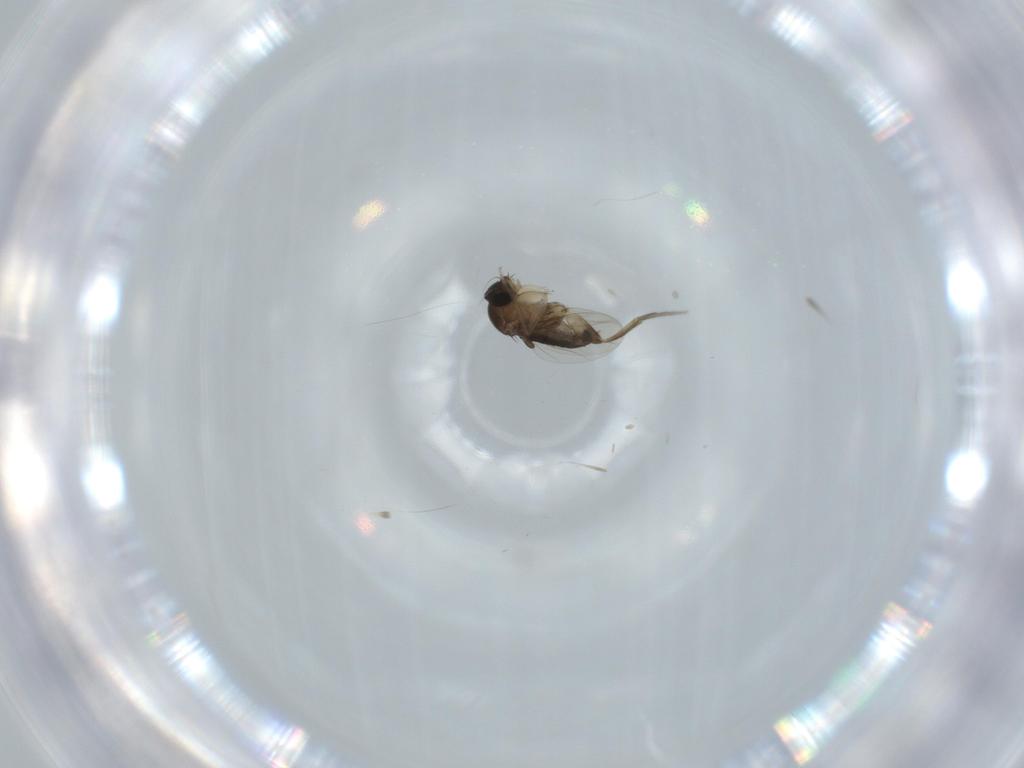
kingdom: Animalia
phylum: Arthropoda
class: Insecta
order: Diptera
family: Phoridae
